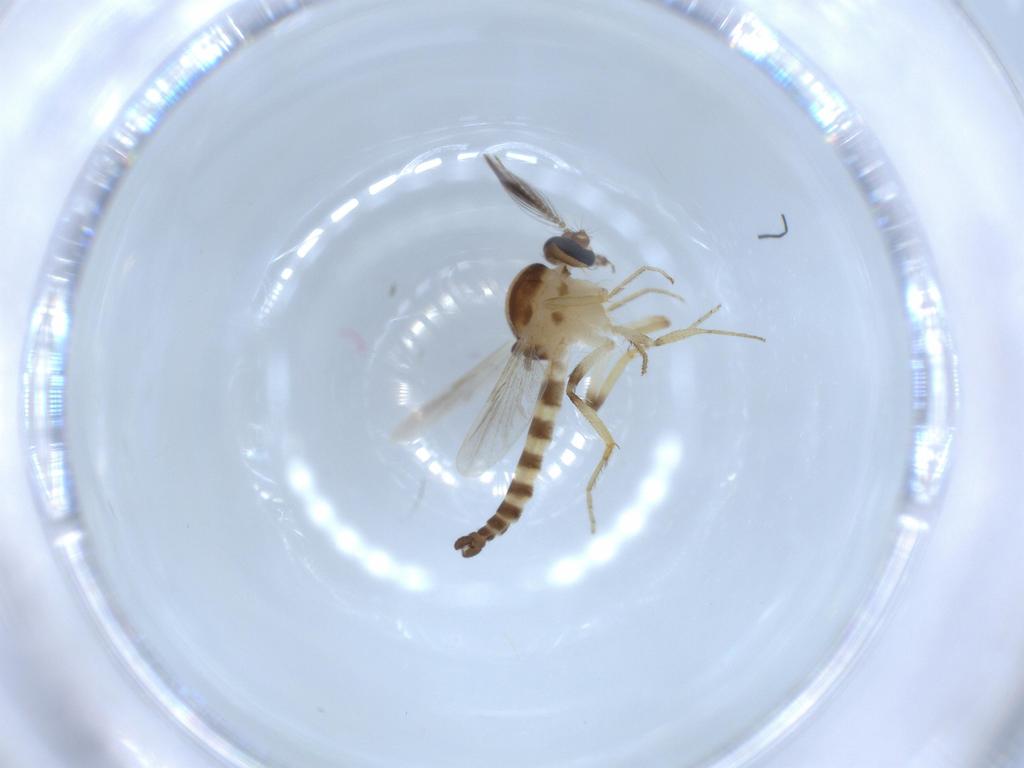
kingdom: Animalia
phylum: Arthropoda
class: Insecta
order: Diptera
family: Ceratopogonidae
